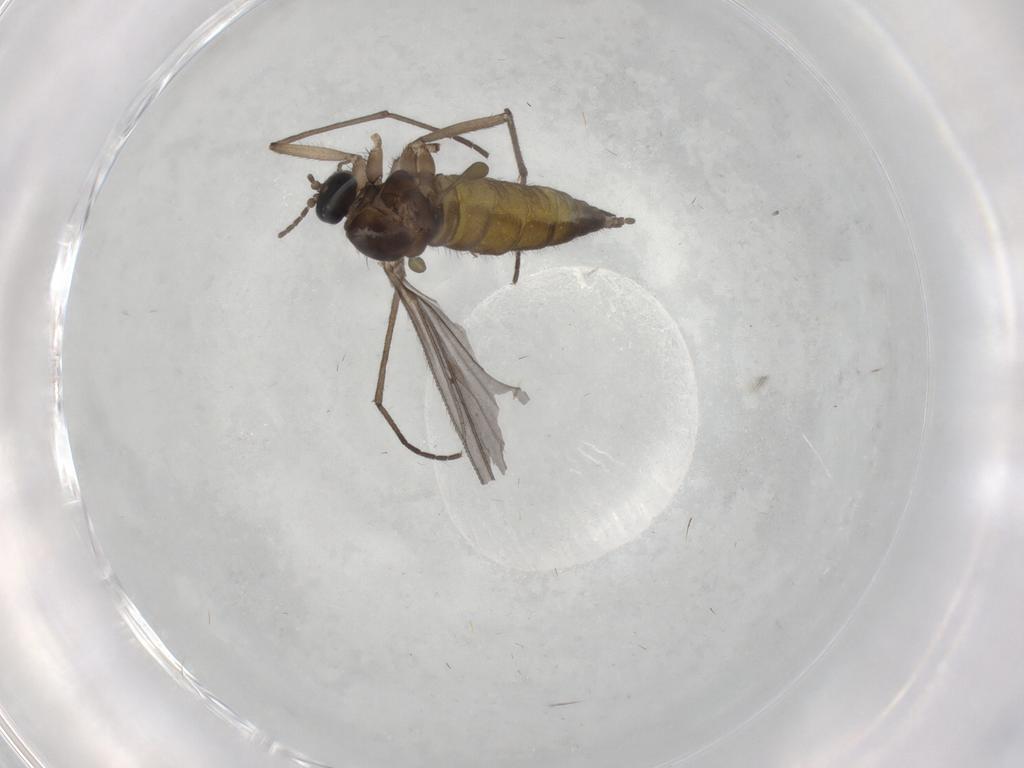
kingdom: Animalia
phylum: Arthropoda
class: Insecta
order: Diptera
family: Sciaridae
